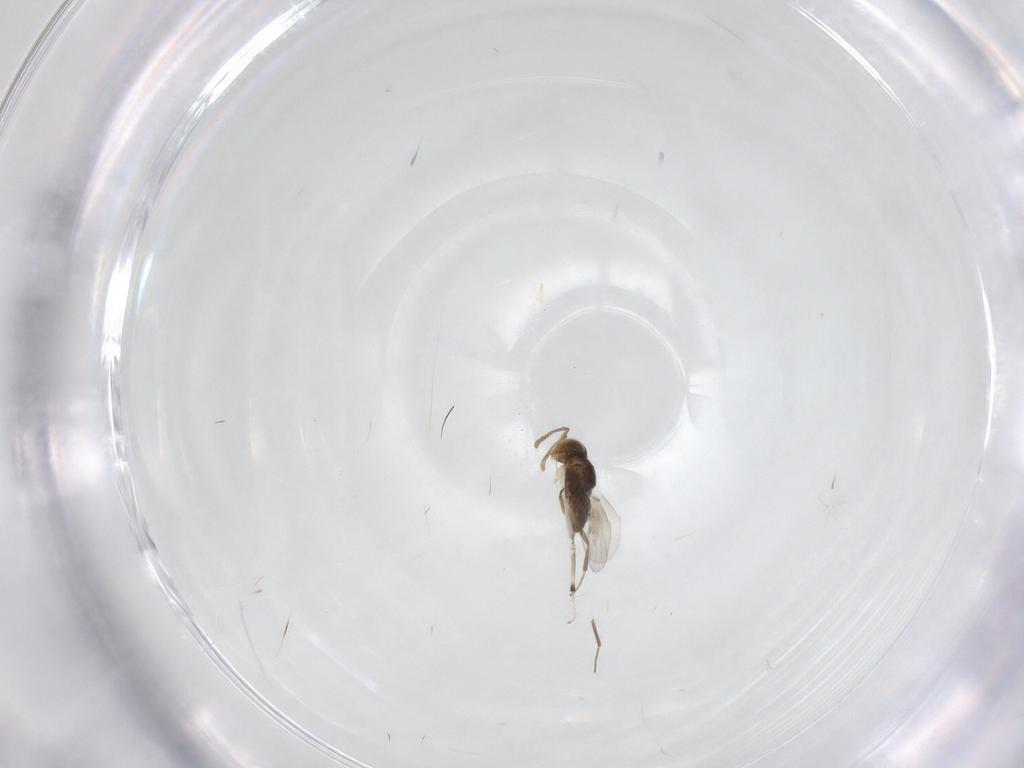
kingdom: Animalia
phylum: Arthropoda
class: Insecta
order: Hymenoptera
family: Encyrtidae
